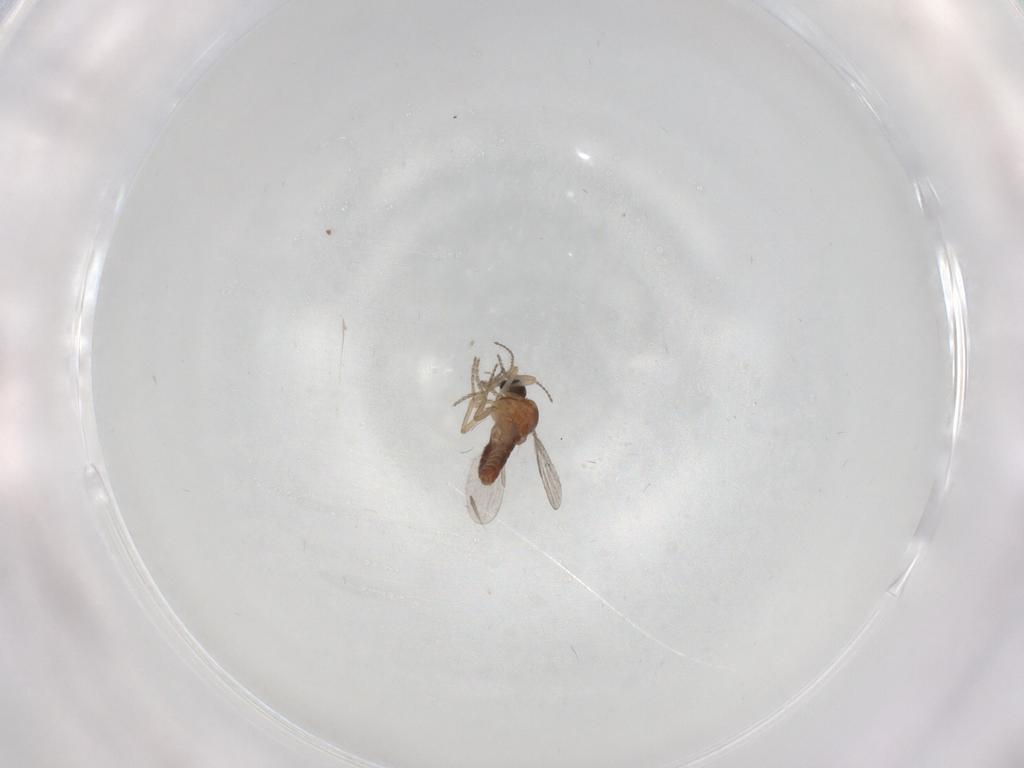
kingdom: Animalia
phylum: Arthropoda
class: Insecta
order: Diptera
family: Ceratopogonidae
